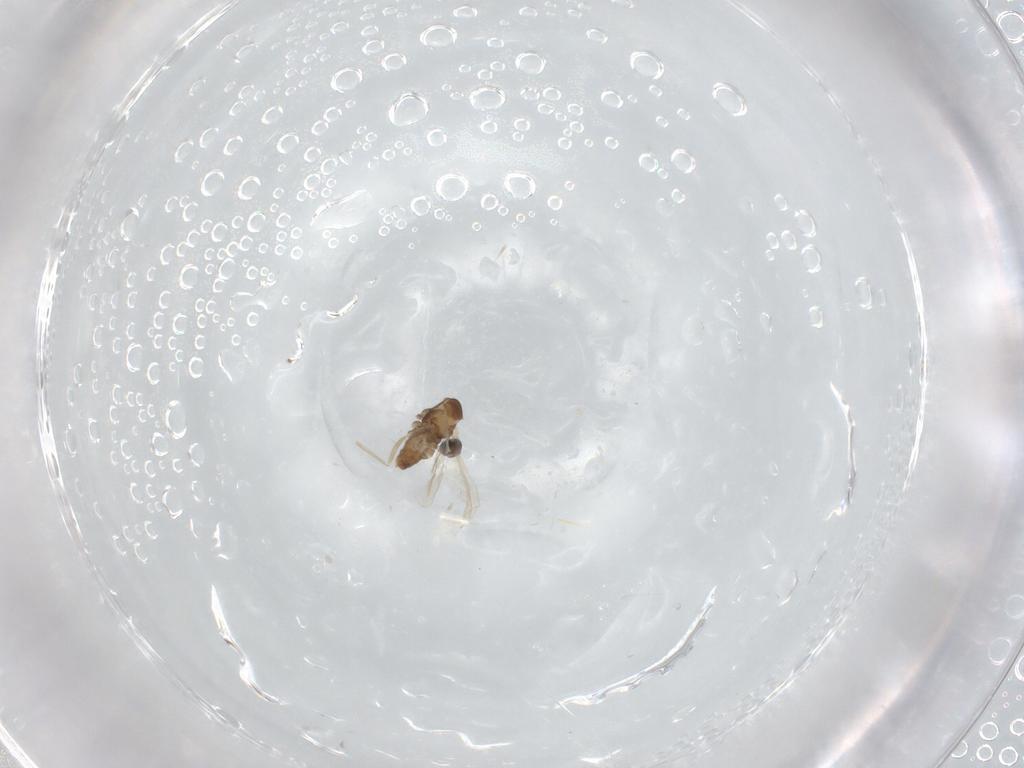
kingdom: Animalia
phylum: Arthropoda
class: Insecta
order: Diptera
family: Cecidomyiidae
